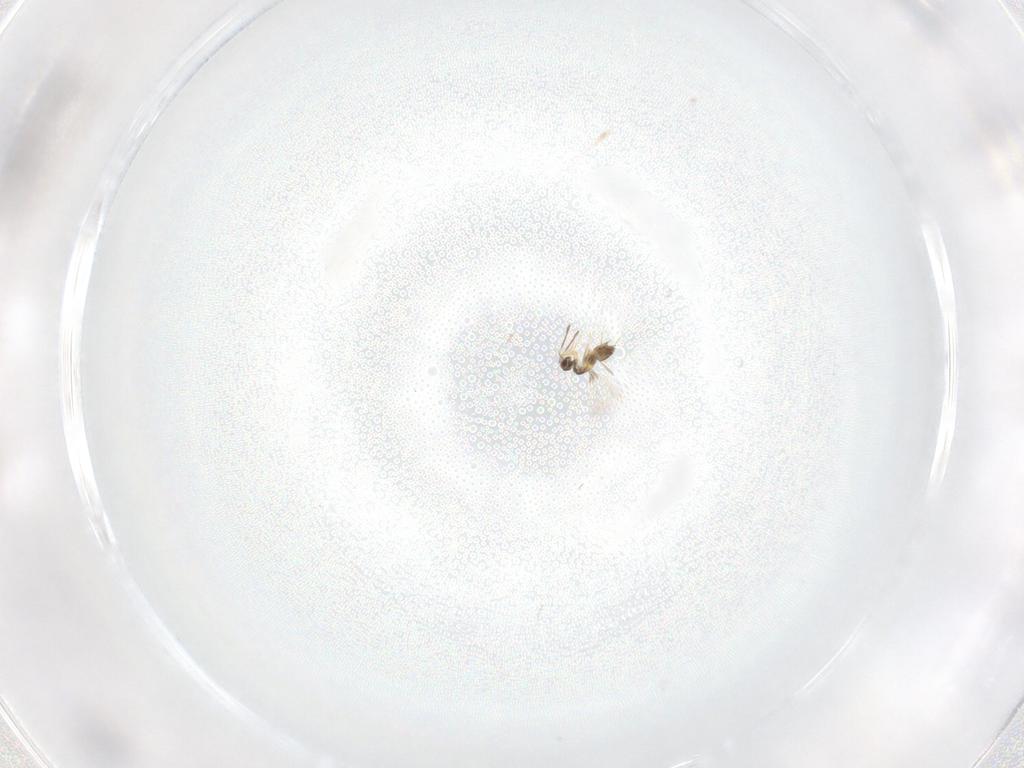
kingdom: Animalia
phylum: Arthropoda
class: Insecta
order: Hymenoptera
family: Mymaridae
